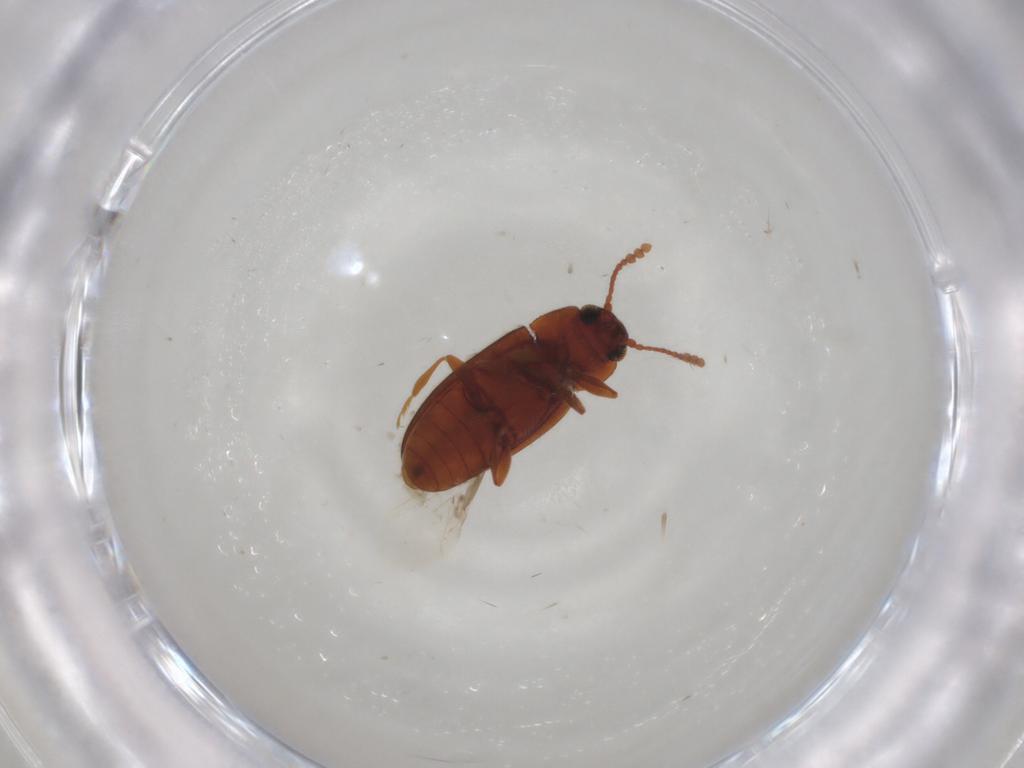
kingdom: Animalia
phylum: Arthropoda
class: Insecta
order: Coleoptera
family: Erotylidae
